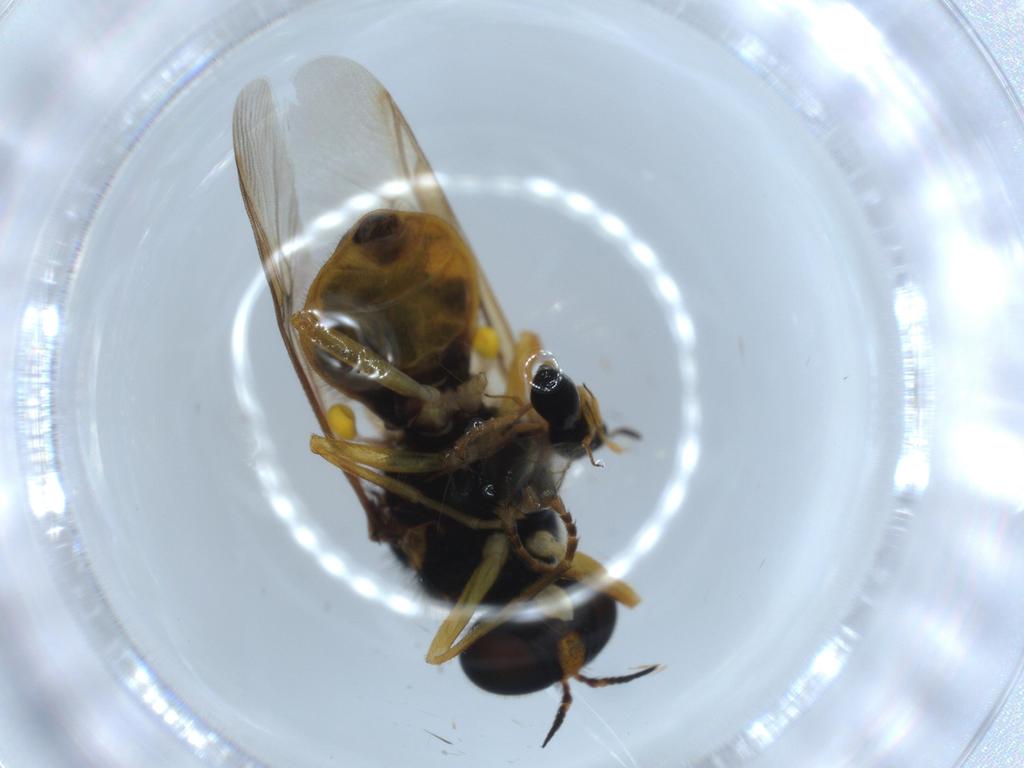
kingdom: Animalia
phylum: Arthropoda
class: Insecta
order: Diptera
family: Stratiomyidae
